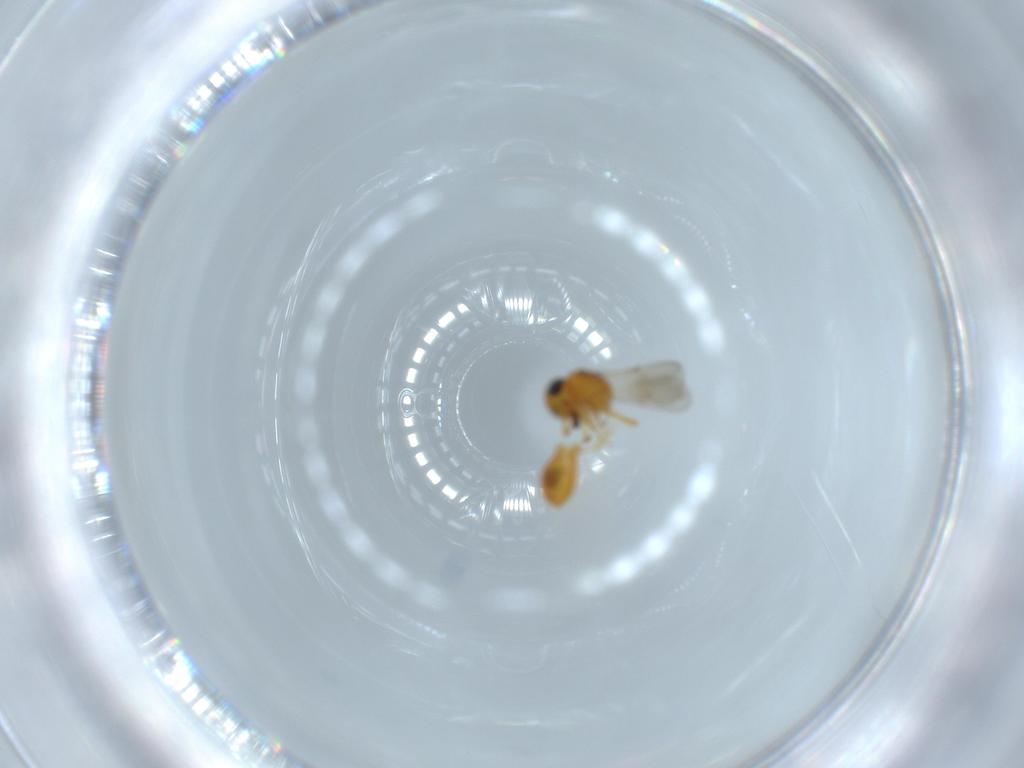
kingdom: Animalia
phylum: Arthropoda
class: Insecta
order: Hymenoptera
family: Scelionidae
